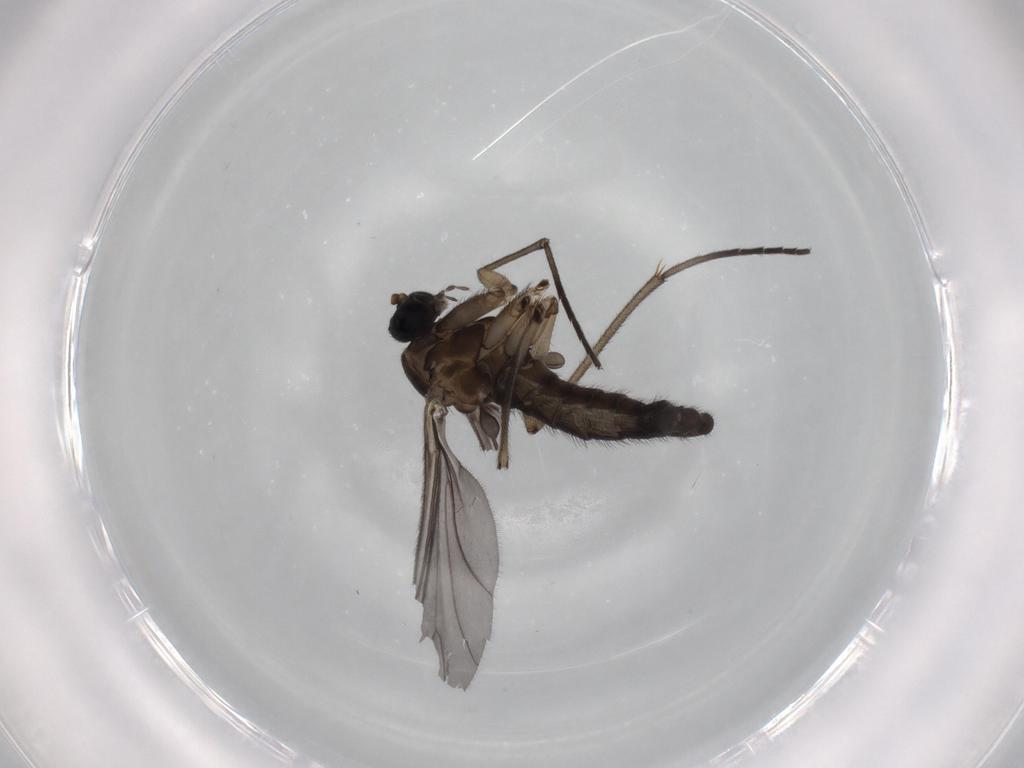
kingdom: Animalia
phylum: Arthropoda
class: Insecta
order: Diptera
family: Sciaridae
